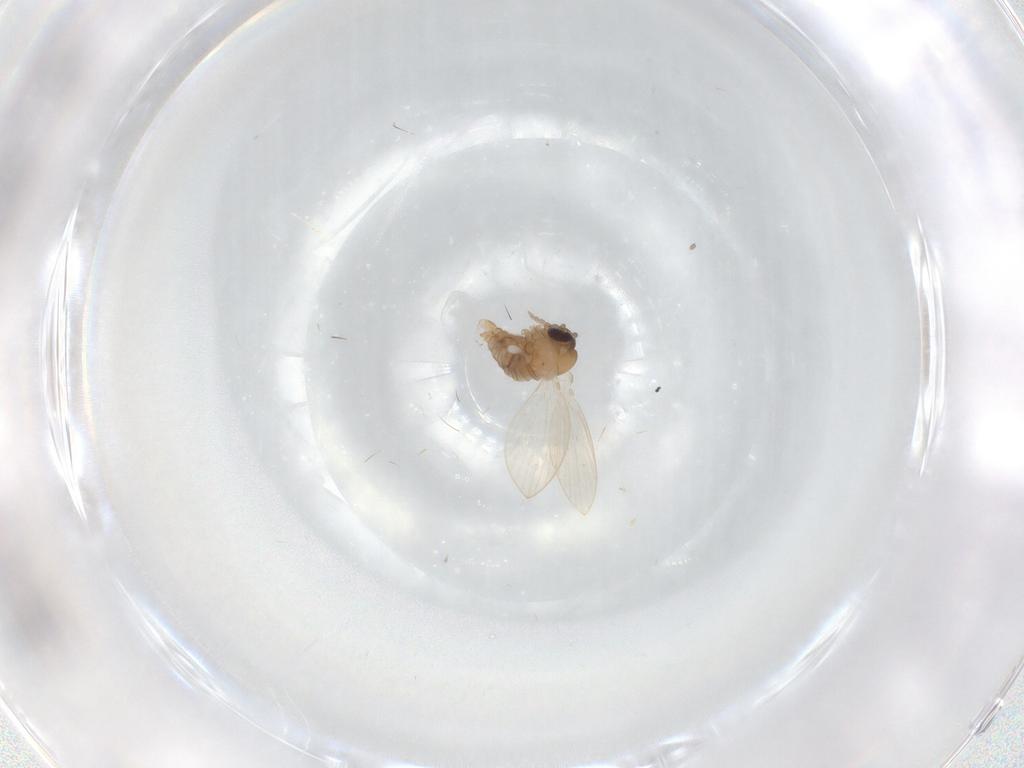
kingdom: Animalia
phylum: Arthropoda
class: Insecta
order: Diptera
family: Psychodidae
